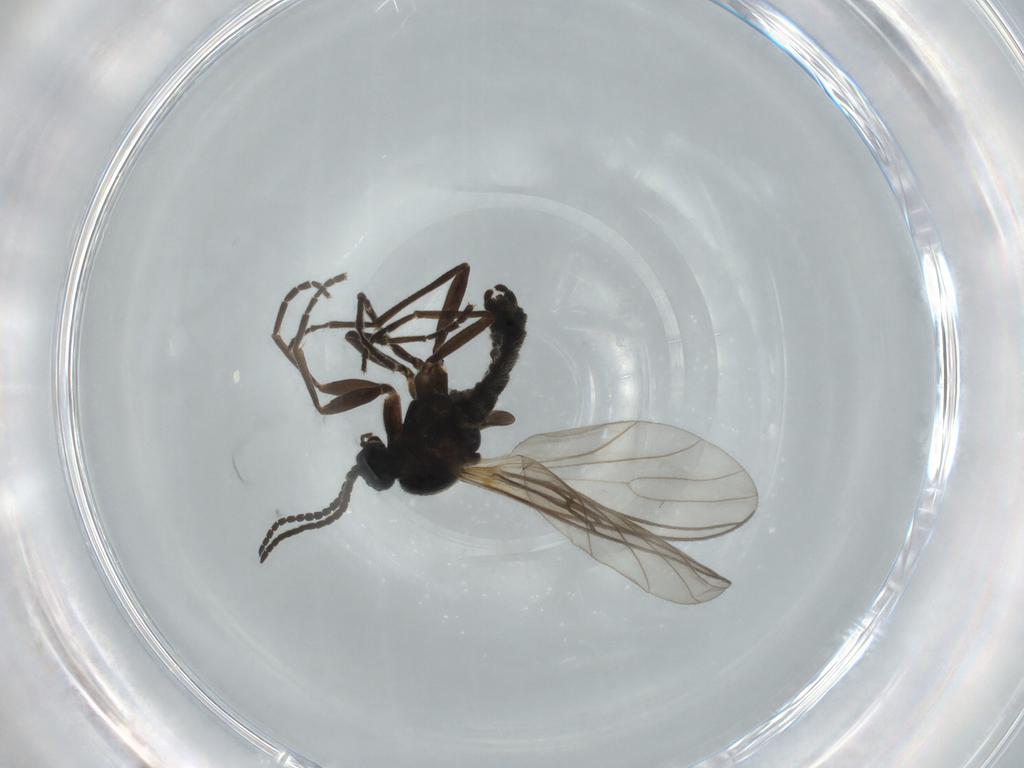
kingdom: Animalia
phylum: Arthropoda
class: Insecta
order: Diptera
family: Sciaridae
